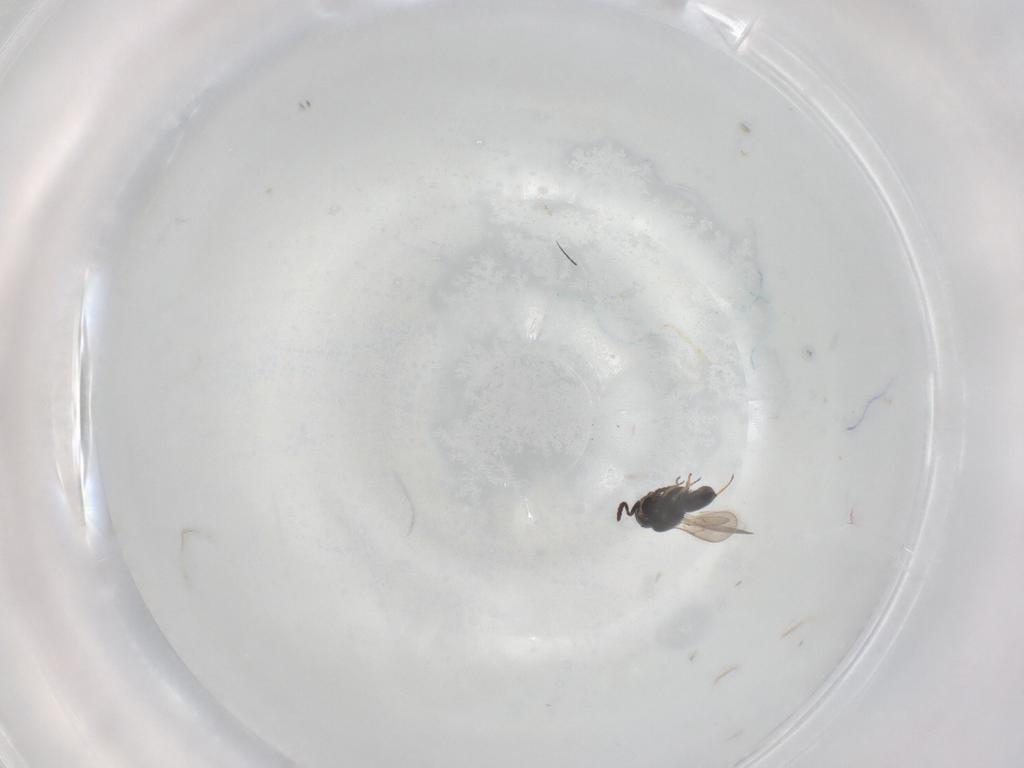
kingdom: Animalia
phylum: Arthropoda
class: Insecta
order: Hymenoptera
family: Scelionidae
